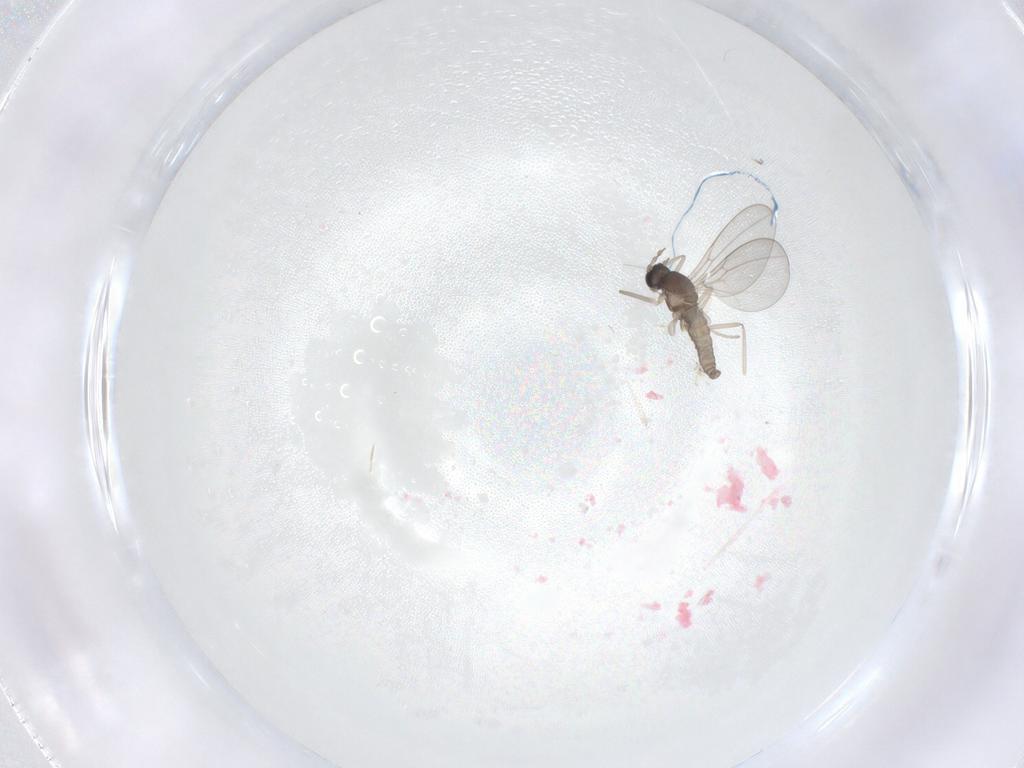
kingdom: Animalia
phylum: Arthropoda
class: Insecta
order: Diptera
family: Cecidomyiidae
